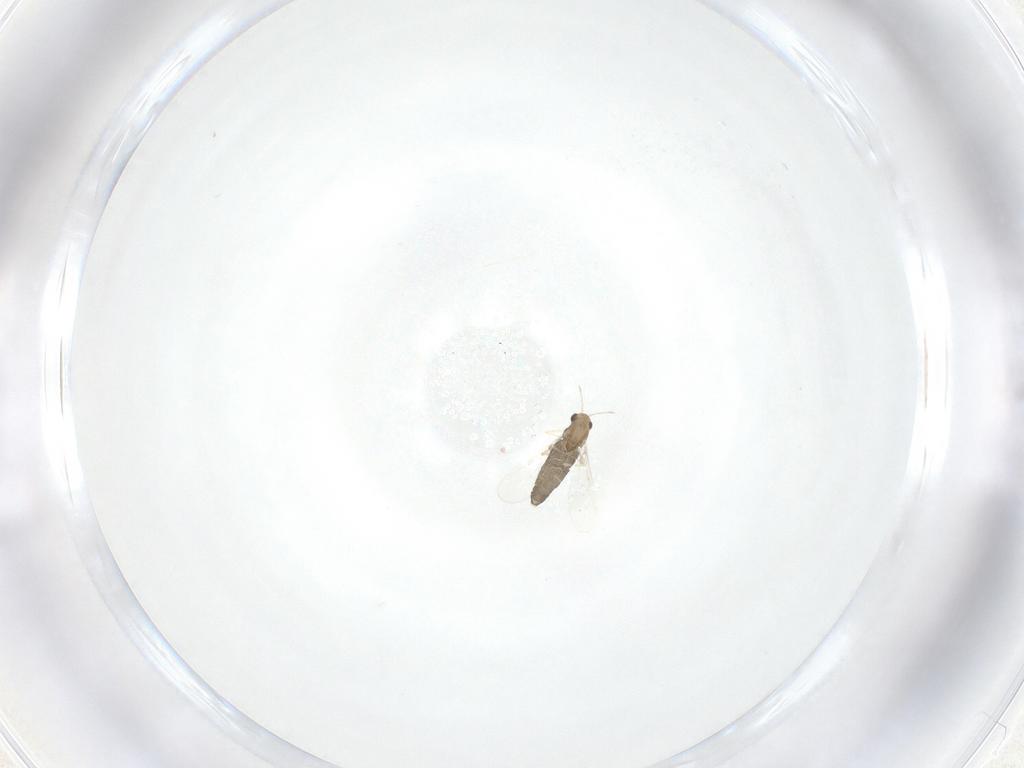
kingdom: Animalia
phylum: Arthropoda
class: Insecta
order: Diptera
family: Chironomidae
